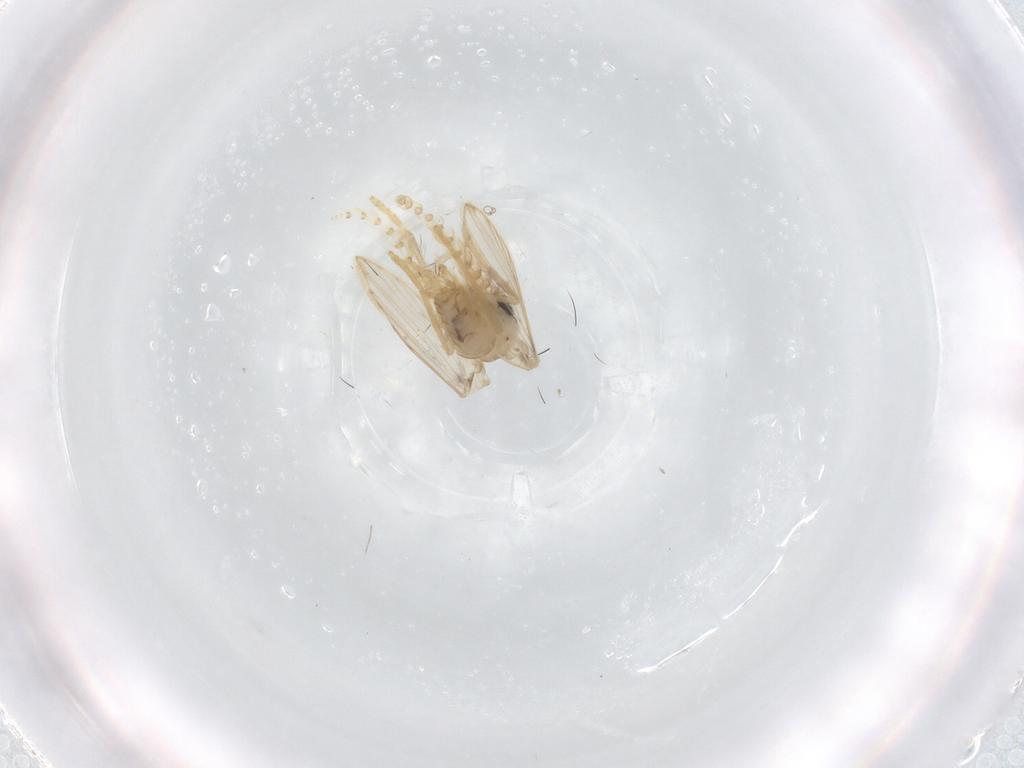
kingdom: Animalia
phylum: Arthropoda
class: Insecta
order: Diptera
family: Psychodidae
